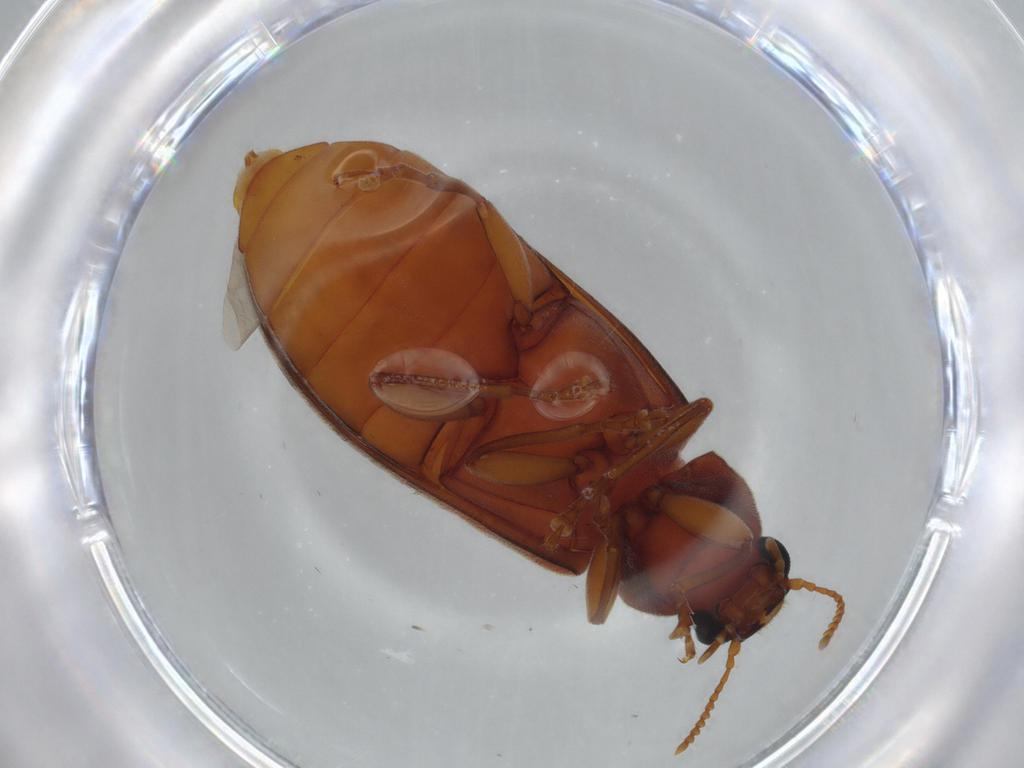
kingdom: Animalia
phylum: Arthropoda
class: Insecta
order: Coleoptera
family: Mycteridae
